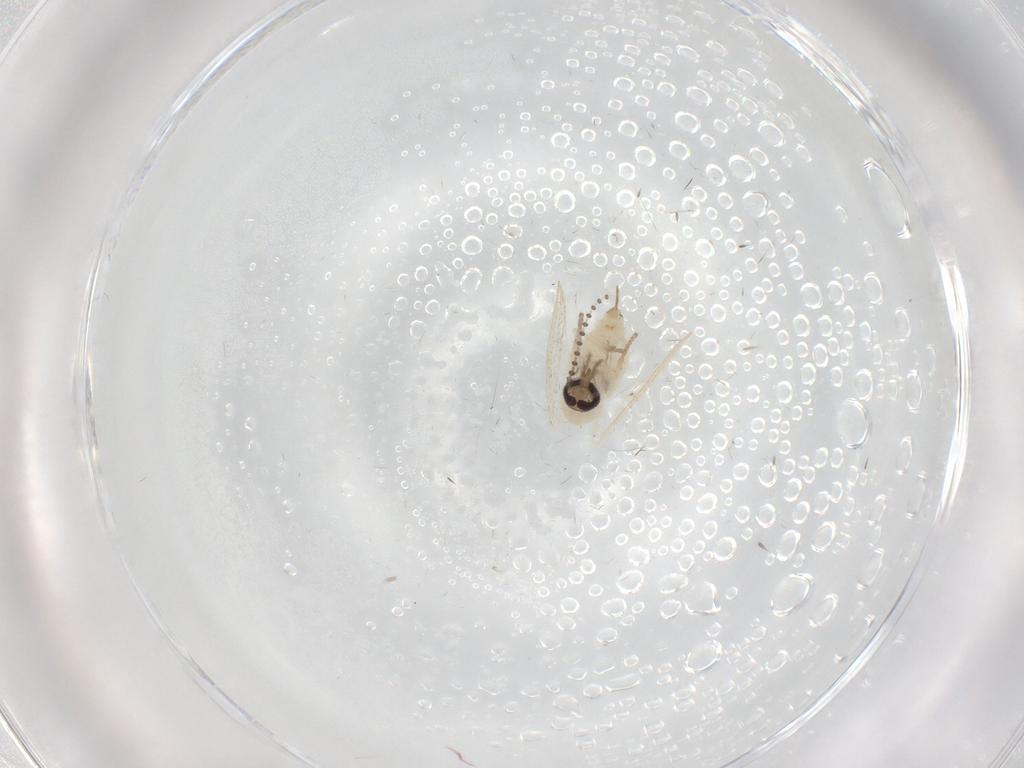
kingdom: Animalia
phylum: Arthropoda
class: Insecta
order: Diptera
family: Psychodidae
